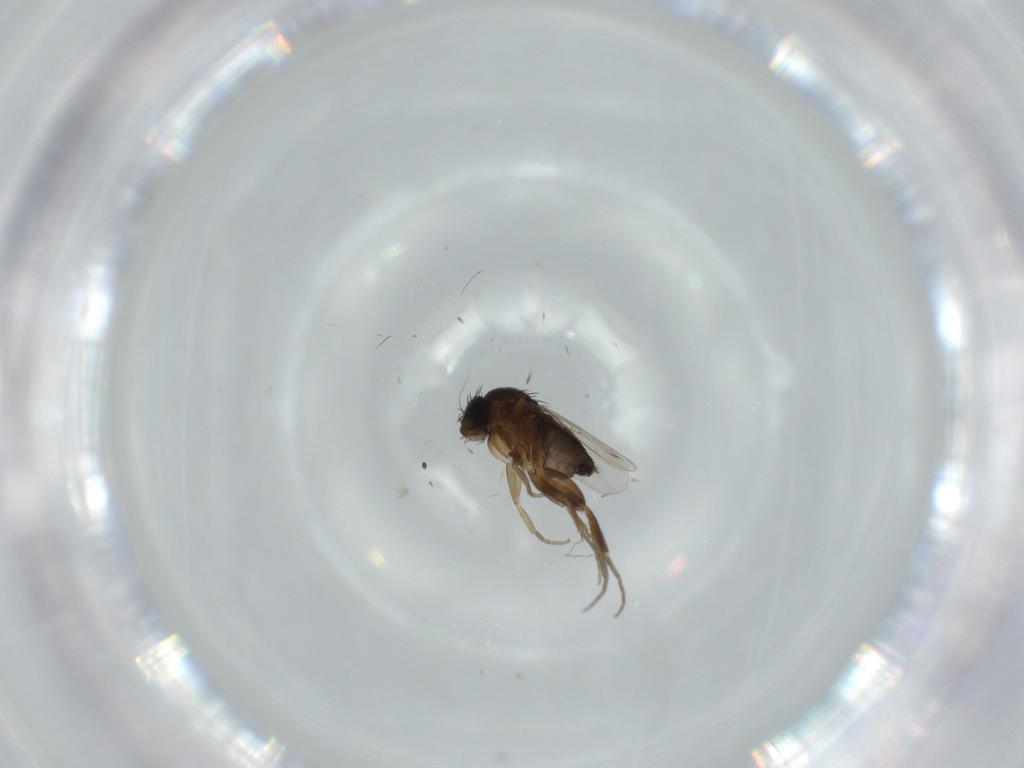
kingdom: Animalia
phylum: Arthropoda
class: Insecta
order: Diptera
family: Phoridae
